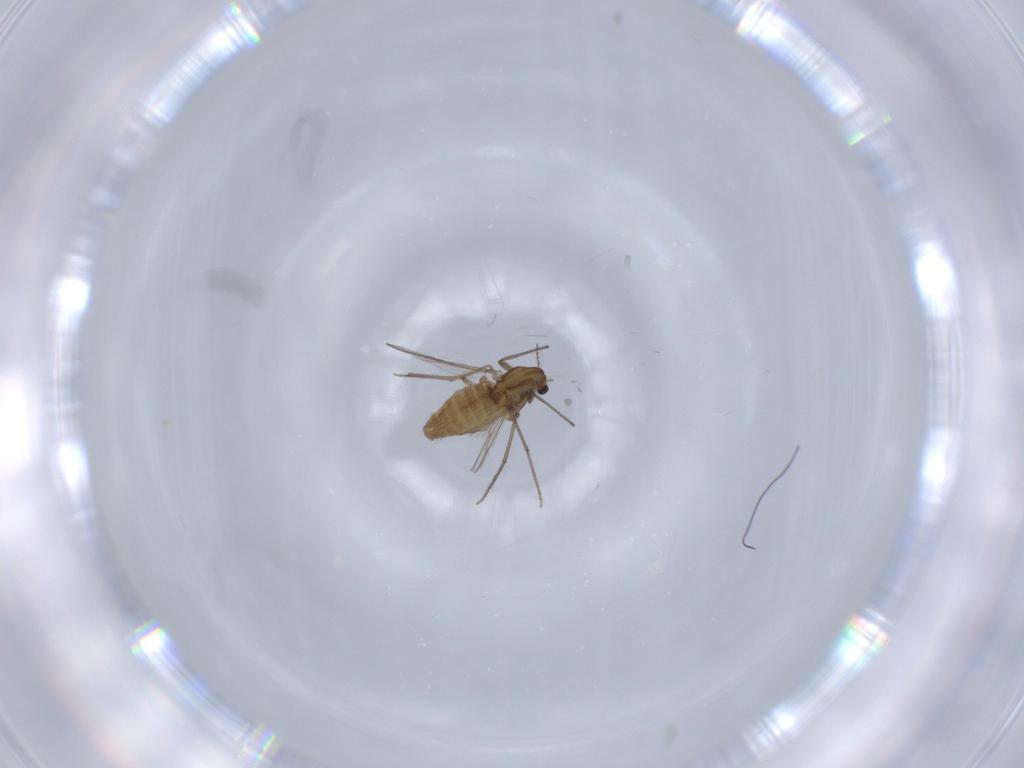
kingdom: Animalia
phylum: Arthropoda
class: Insecta
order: Diptera
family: Chironomidae
